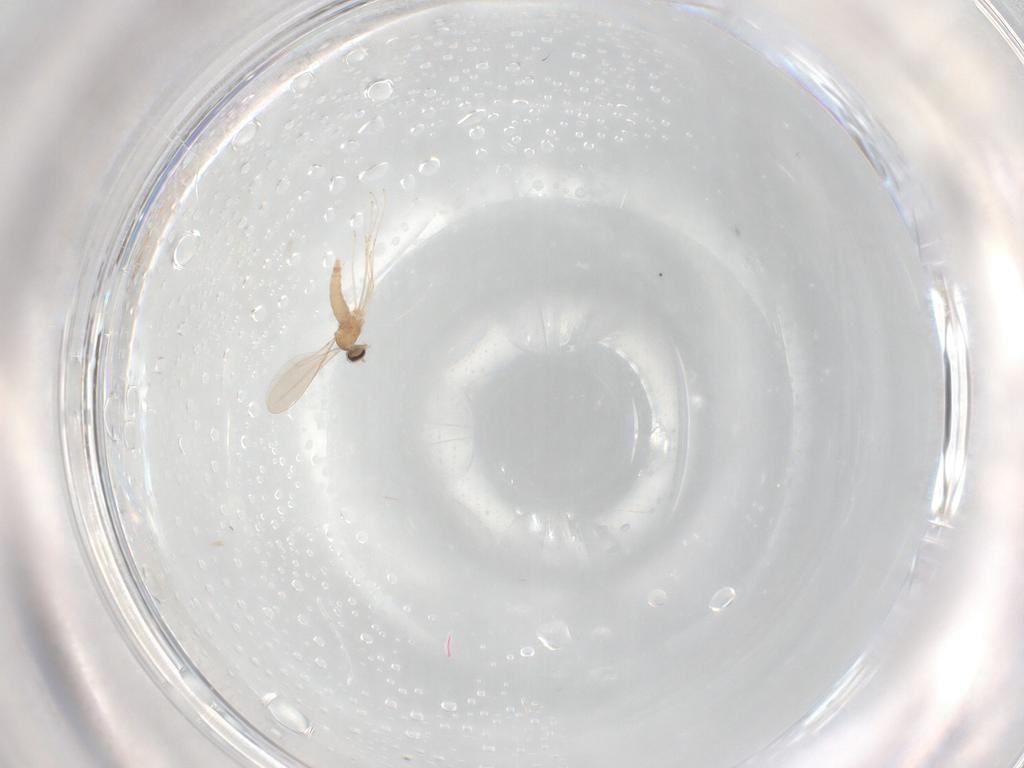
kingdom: Animalia
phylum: Arthropoda
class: Insecta
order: Diptera
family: Cecidomyiidae
